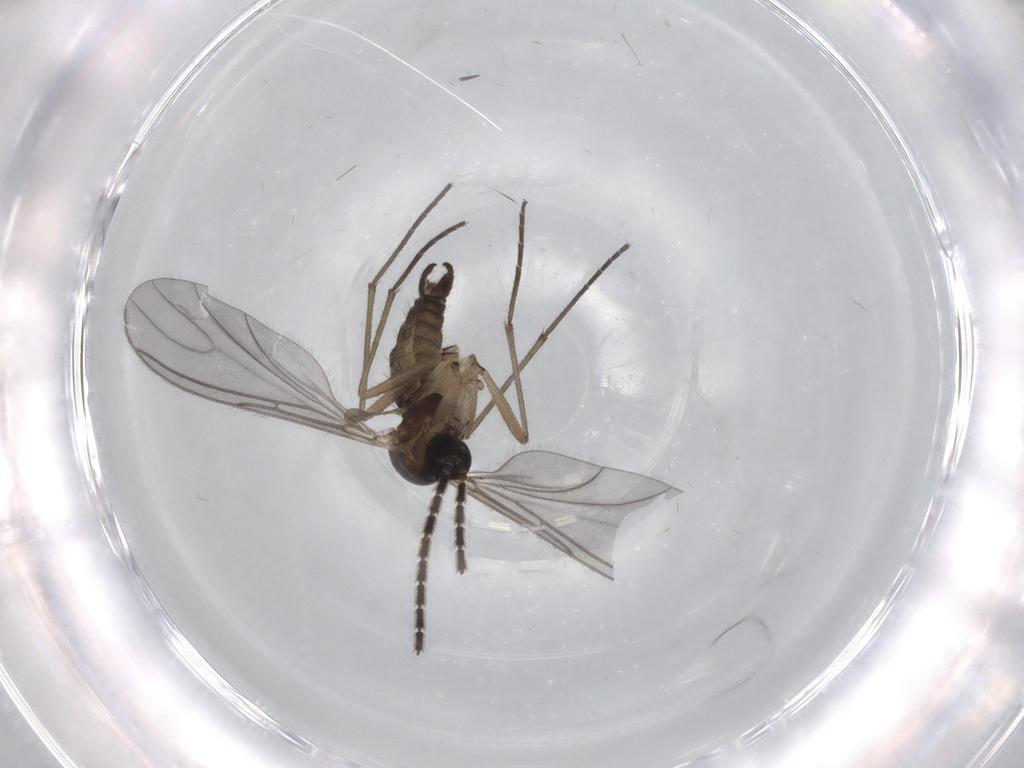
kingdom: Animalia
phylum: Arthropoda
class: Insecta
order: Diptera
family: Sciaridae
